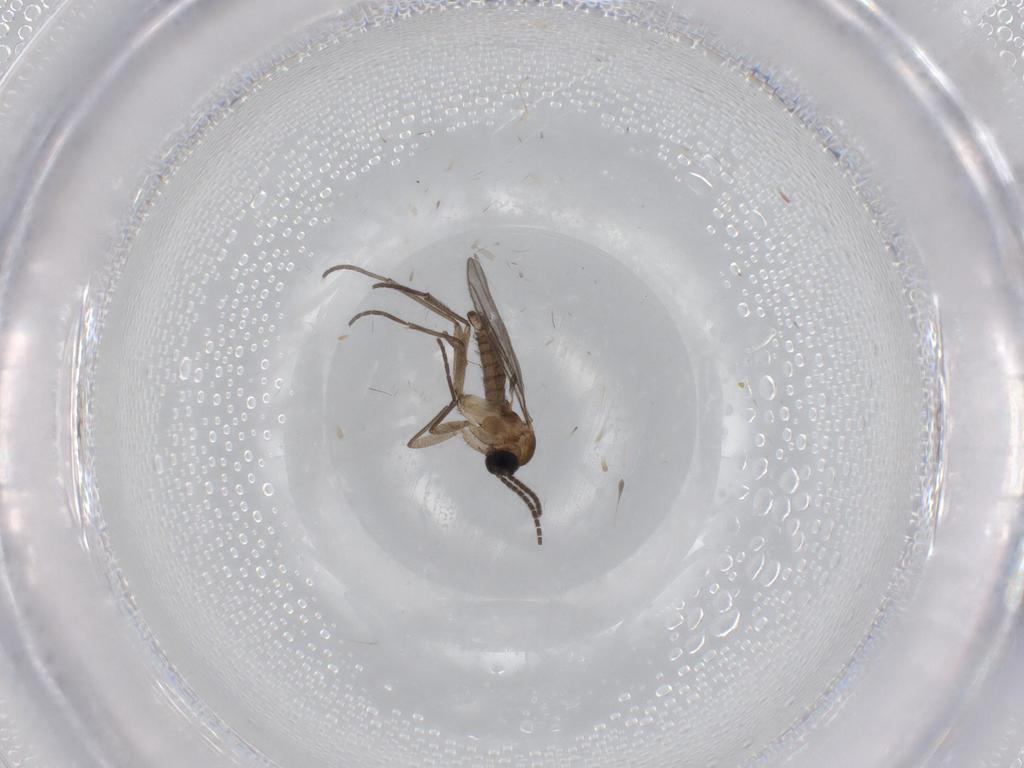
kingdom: Animalia
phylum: Arthropoda
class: Insecta
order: Diptera
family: Sciaridae
